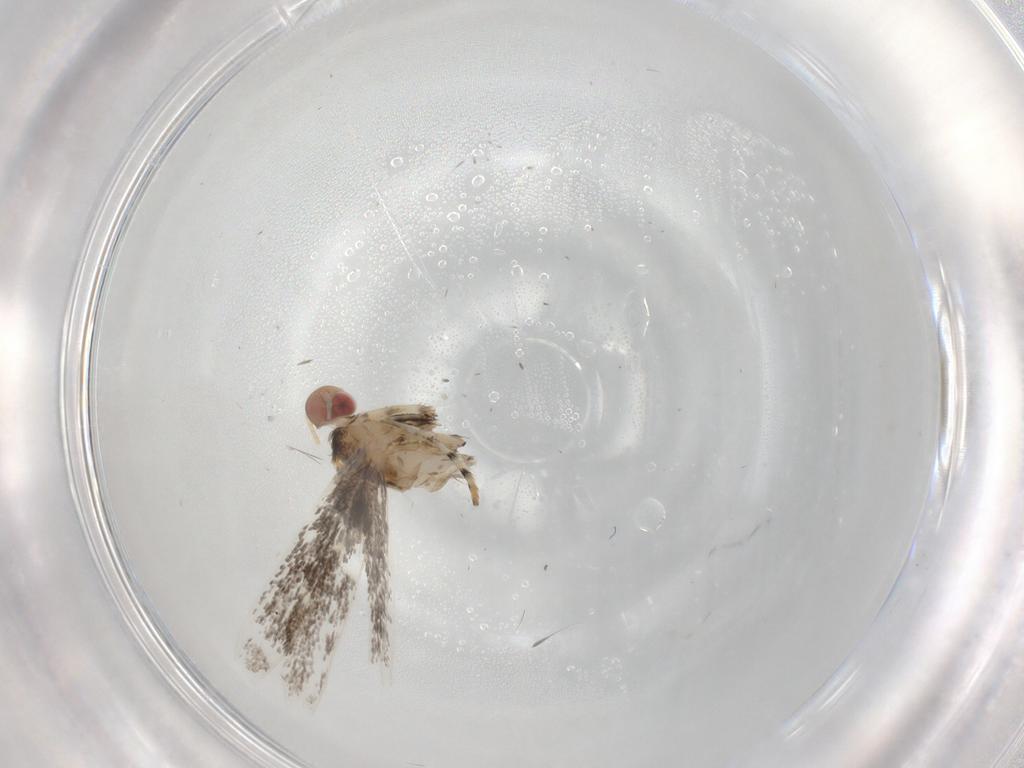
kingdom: Animalia
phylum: Arthropoda
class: Insecta
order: Lepidoptera
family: Gracillariidae
